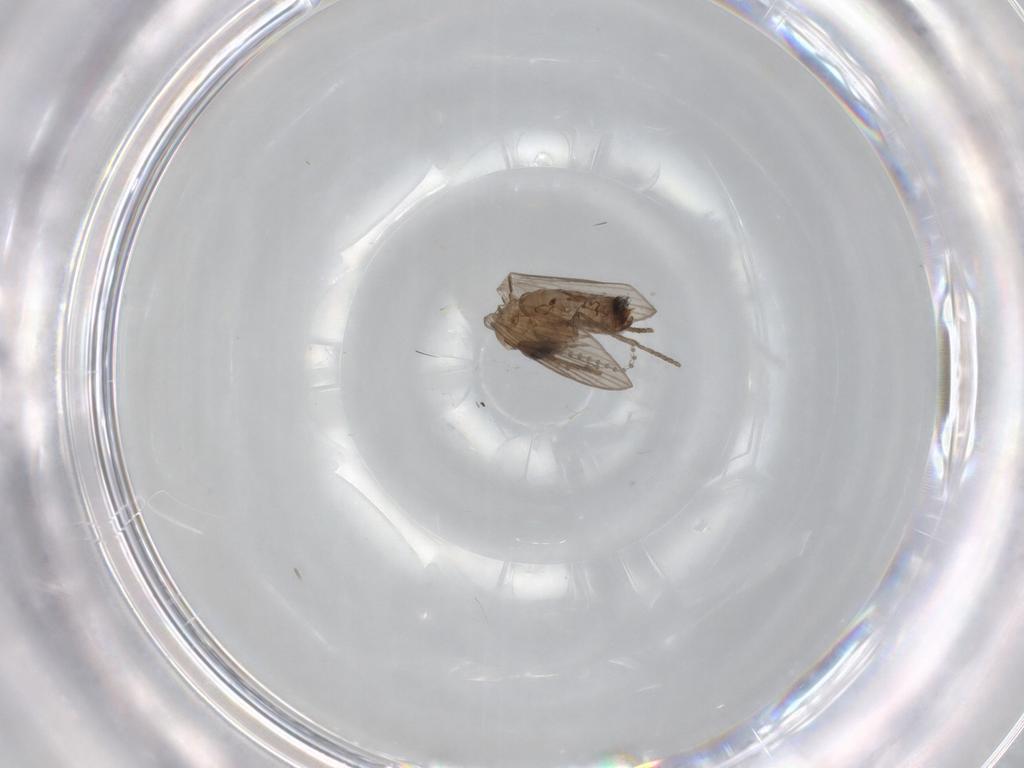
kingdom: Animalia
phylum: Arthropoda
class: Insecta
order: Diptera
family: Psychodidae
